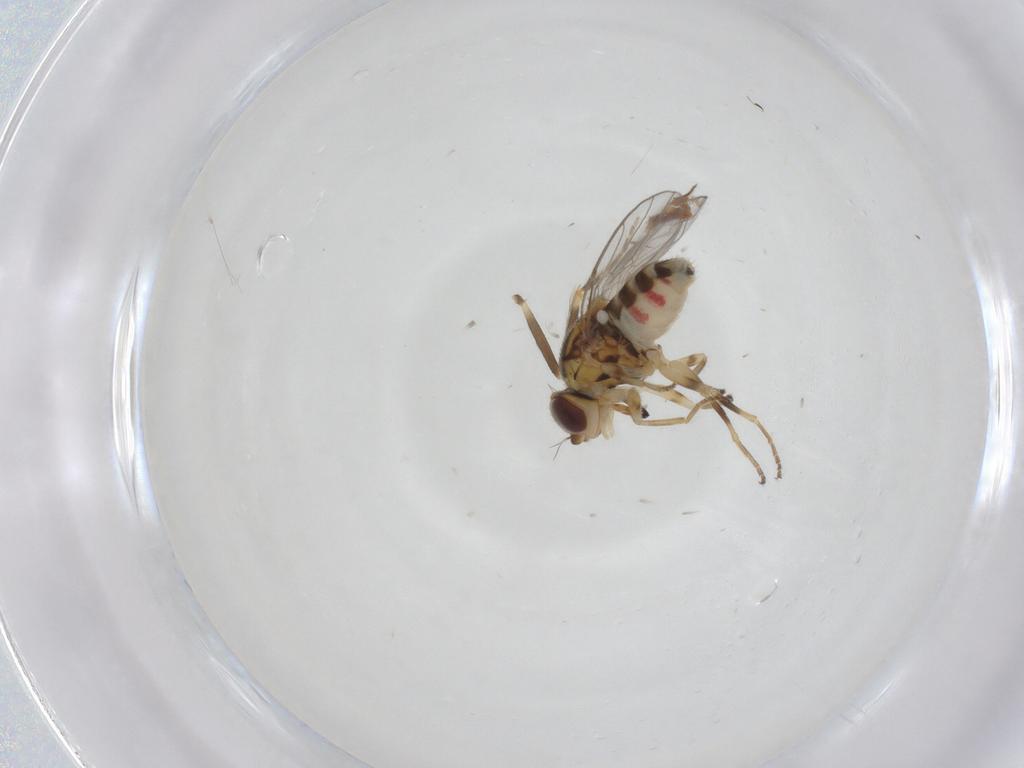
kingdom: Animalia
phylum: Arthropoda
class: Insecta
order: Diptera
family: Chloropidae
